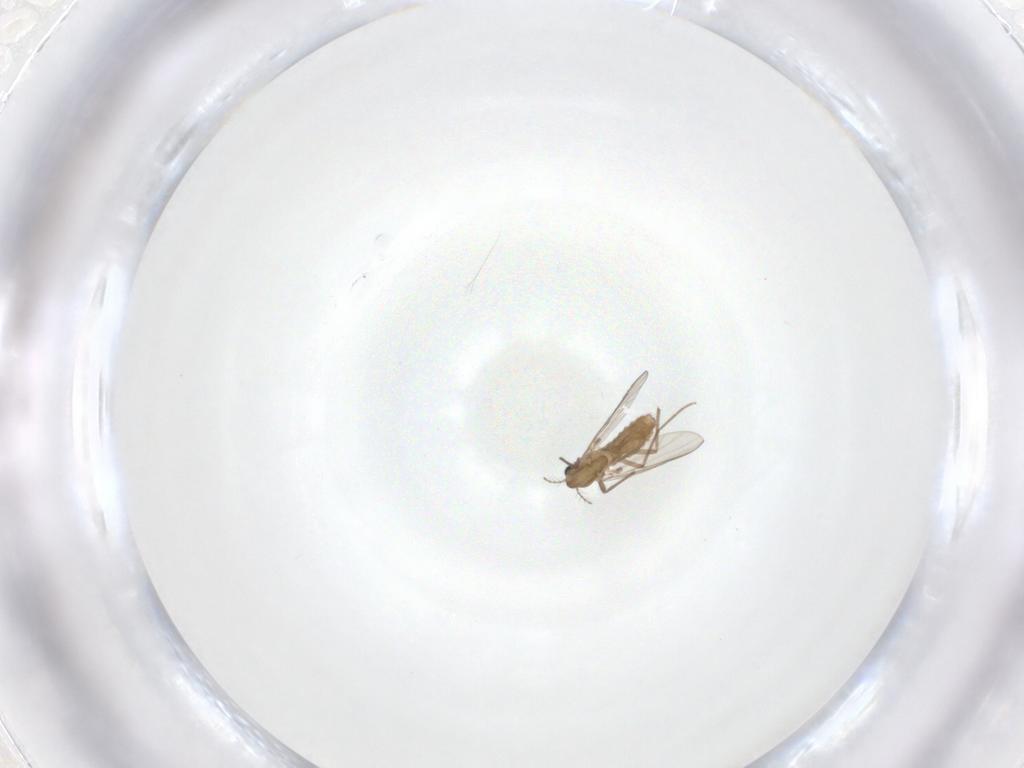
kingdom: Animalia
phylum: Arthropoda
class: Insecta
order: Diptera
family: Chironomidae
